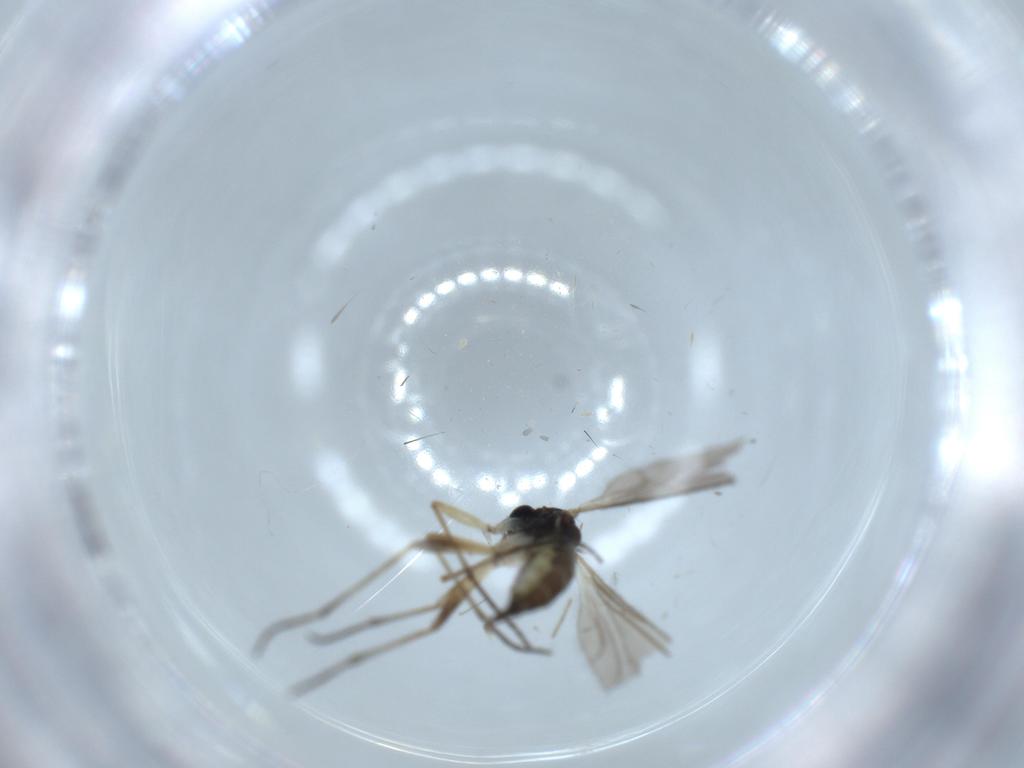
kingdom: Animalia
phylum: Arthropoda
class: Insecta
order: Diptera
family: Sciaridae
